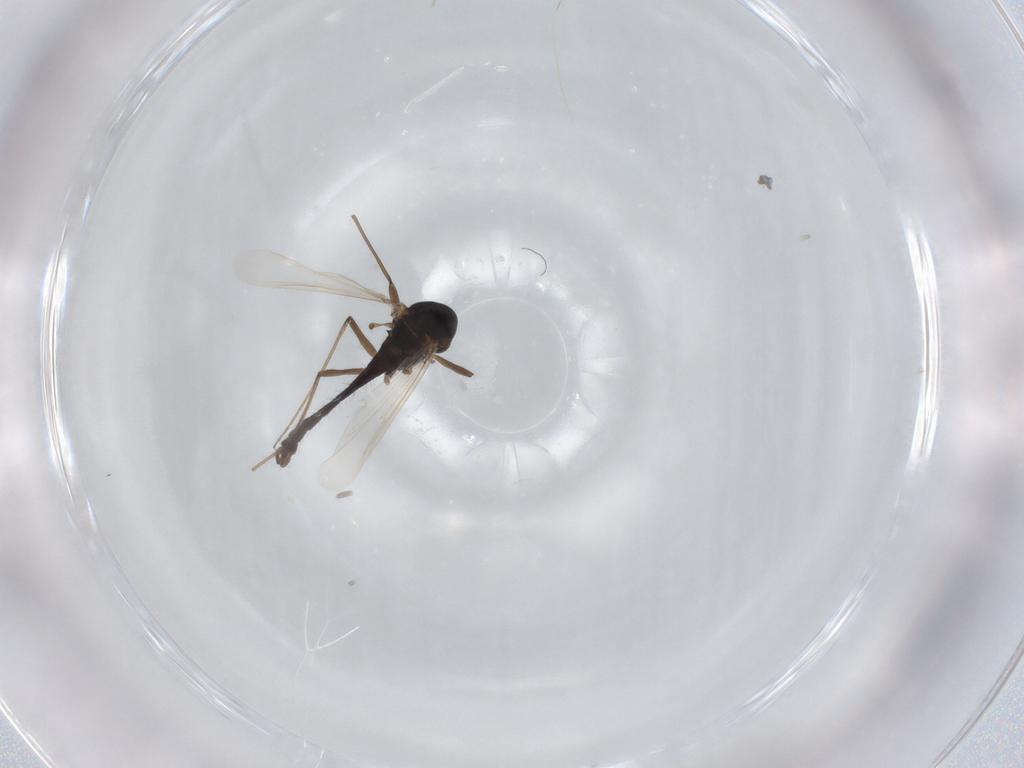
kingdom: Animalia
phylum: Arthropoda
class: Insecta
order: Diptera
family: Chironomidae
